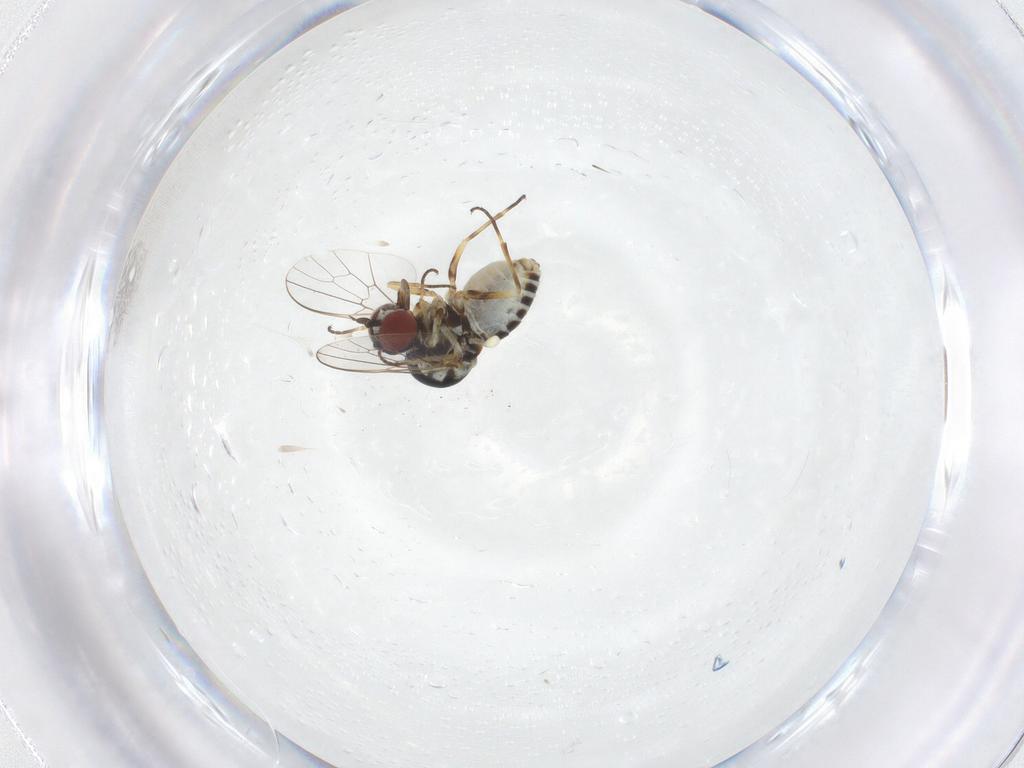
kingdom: Animalia
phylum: Arthropoda
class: Insecta
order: Diptera
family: Bombyliidae
